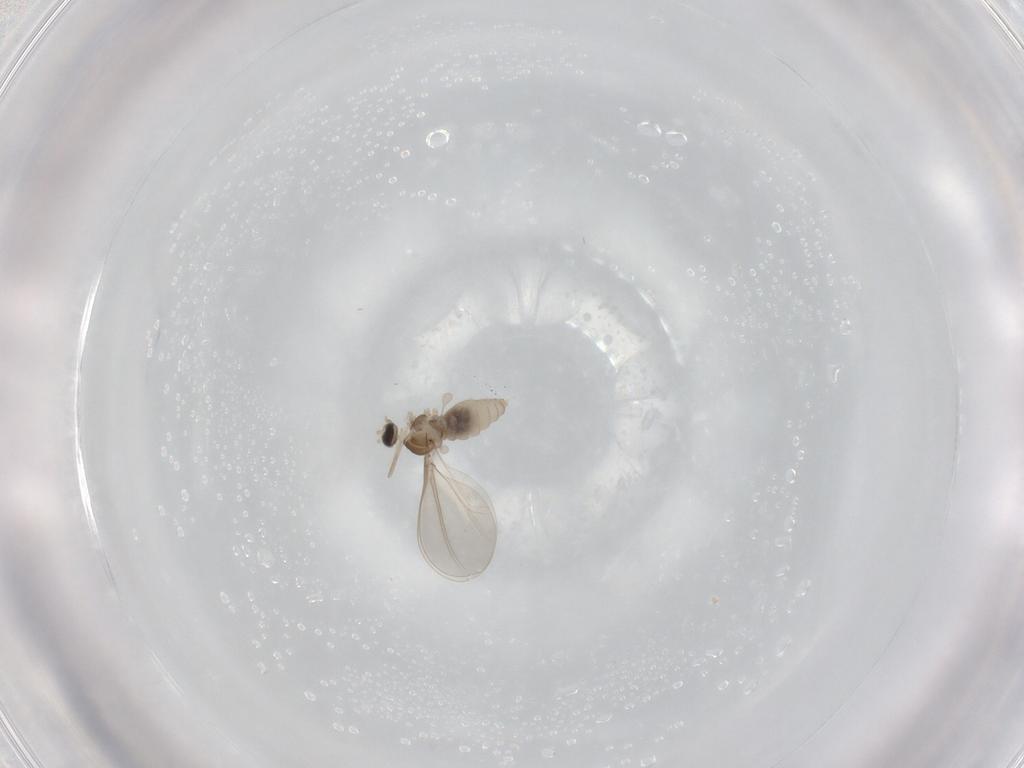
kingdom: Animalia
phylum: Arthropoda
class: Insecta
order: Diptera
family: Cecidomyiidae
